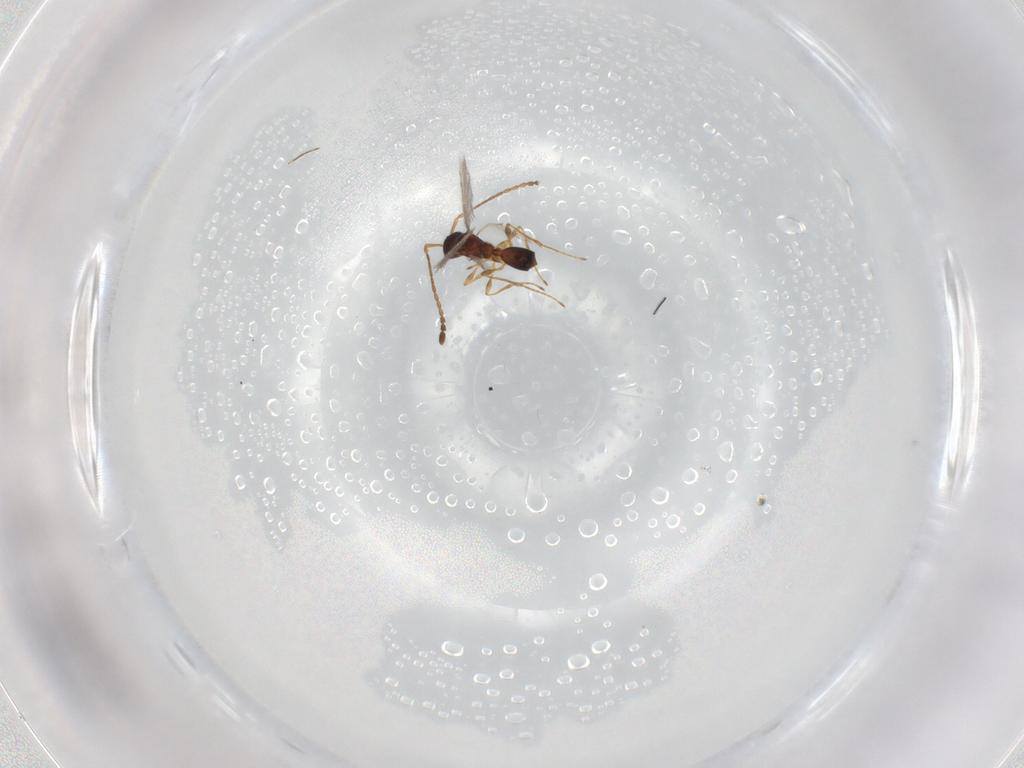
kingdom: Animalia
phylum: Arthropoda
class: Insecta
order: Hymenoptera
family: Diapriidae
